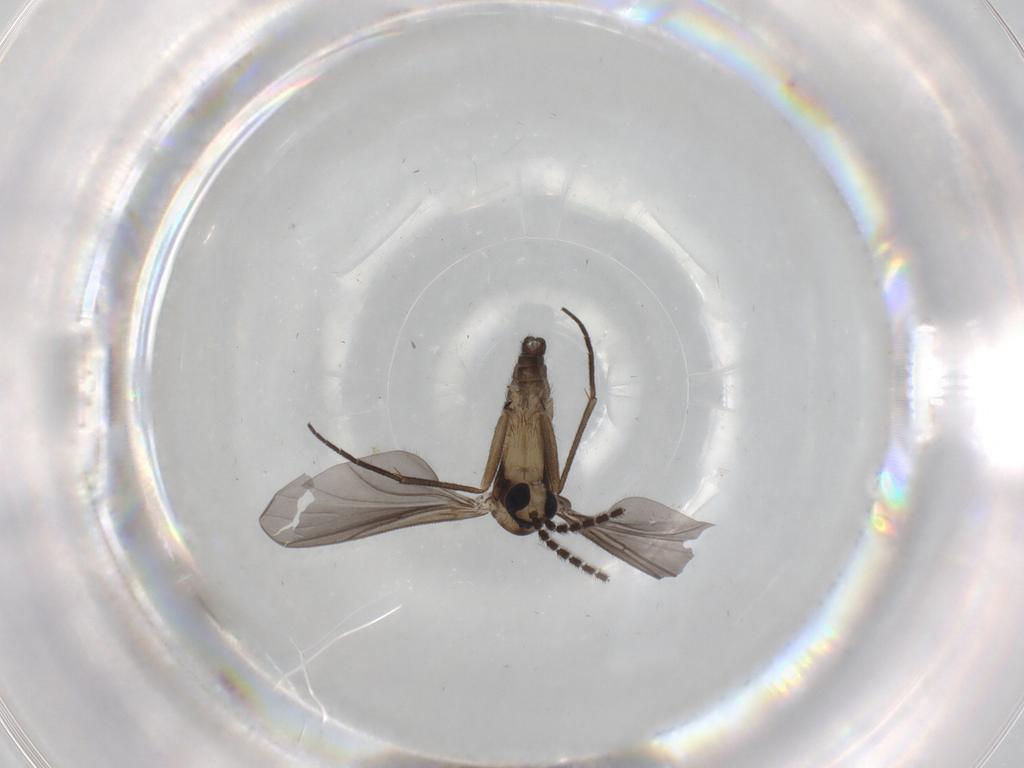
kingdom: Animalia
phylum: Arthropoda
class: Insecta
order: Diptera
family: Sciaridae
